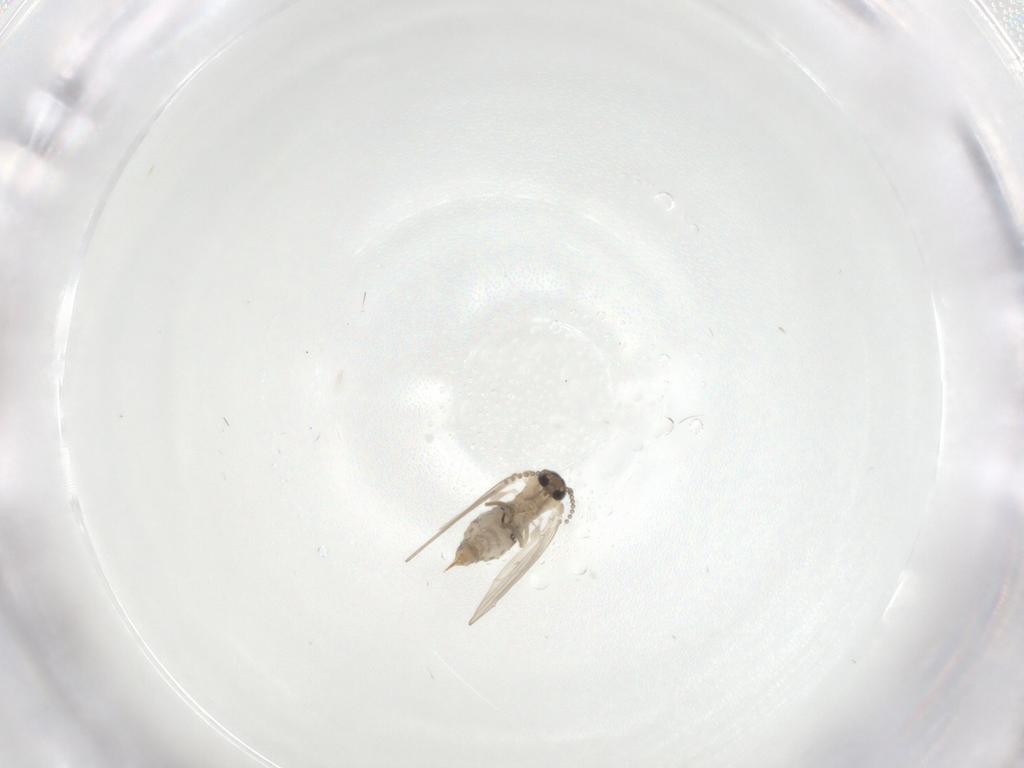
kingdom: Animalia
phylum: Arthropoda
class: Insecta
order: Diptera
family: Psychodidae
